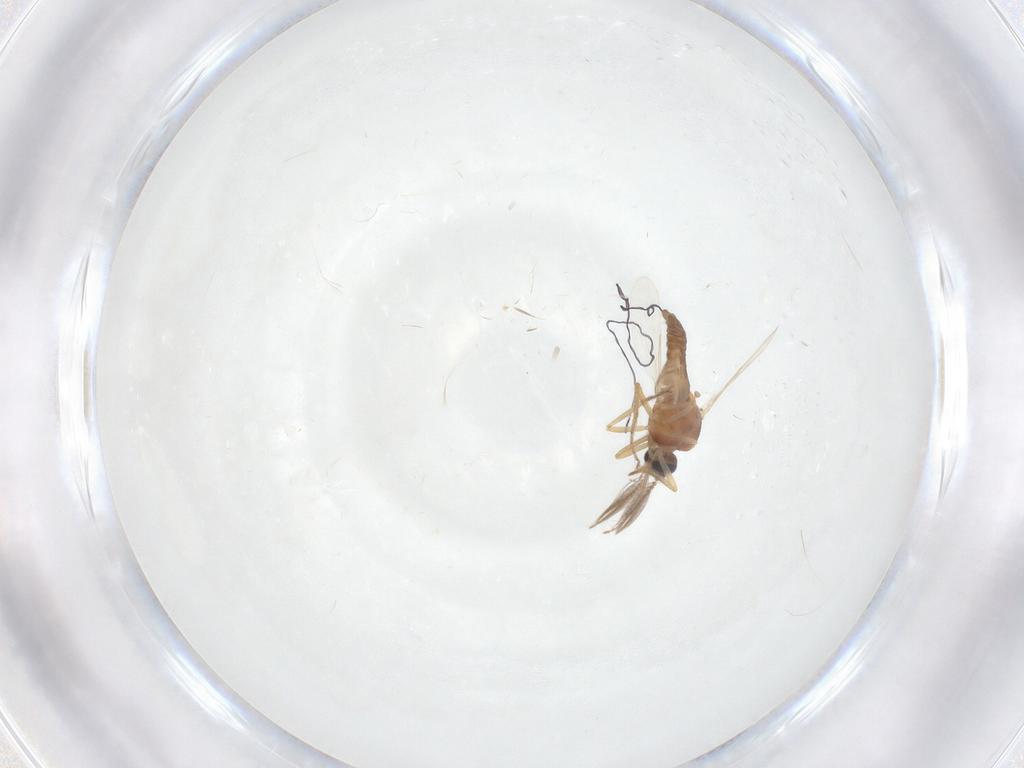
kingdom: Animalia
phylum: Arthropoda
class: Insecta
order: Diptera
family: Ceratopogonidae
